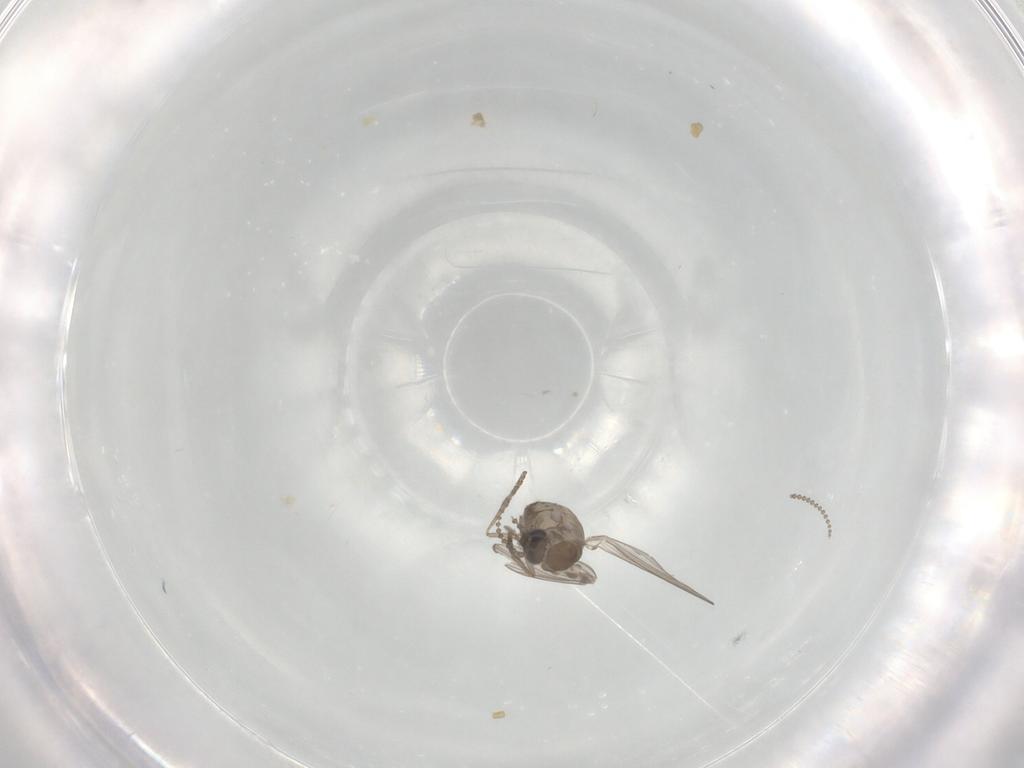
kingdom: Animalia
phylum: Arthropoda
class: Insecta
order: Diptera
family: Psychodidae
